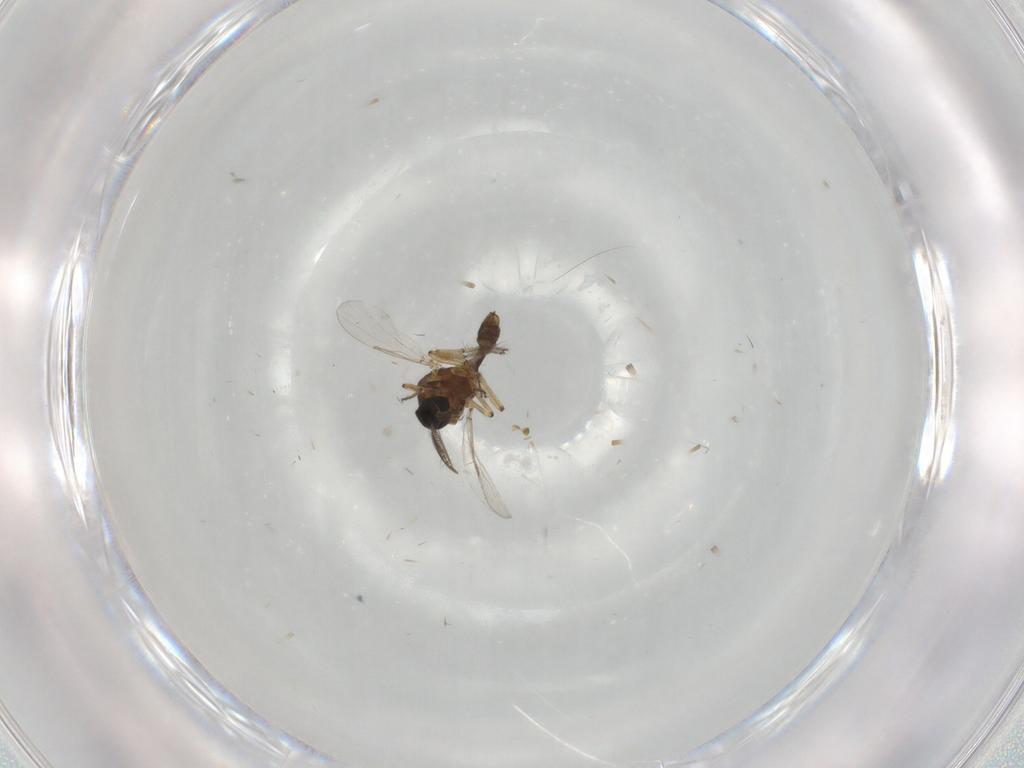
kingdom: Animalia
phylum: Arthropoda
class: Insecta
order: Diptera
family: Ceratopogonidae
